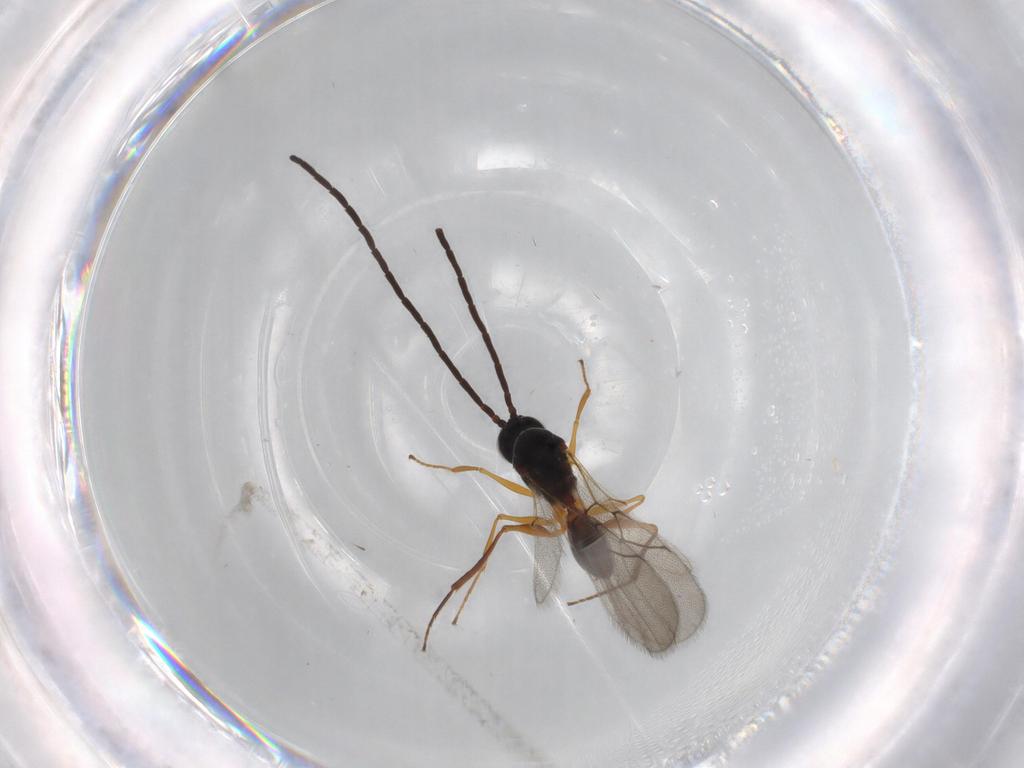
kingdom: Animalia
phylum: Arthropoda
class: Insecta
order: Hymenoptera
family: Figitidae
